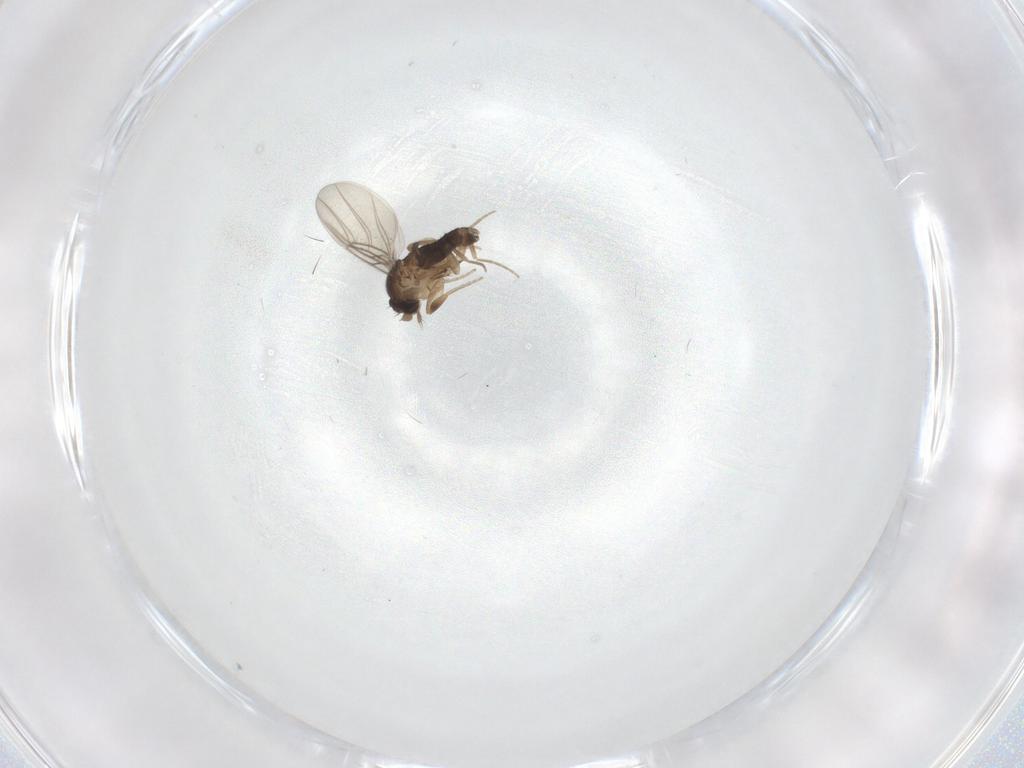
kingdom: Animalia
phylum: Arthropoda
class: Insecta
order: Diptera
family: Phoridae
